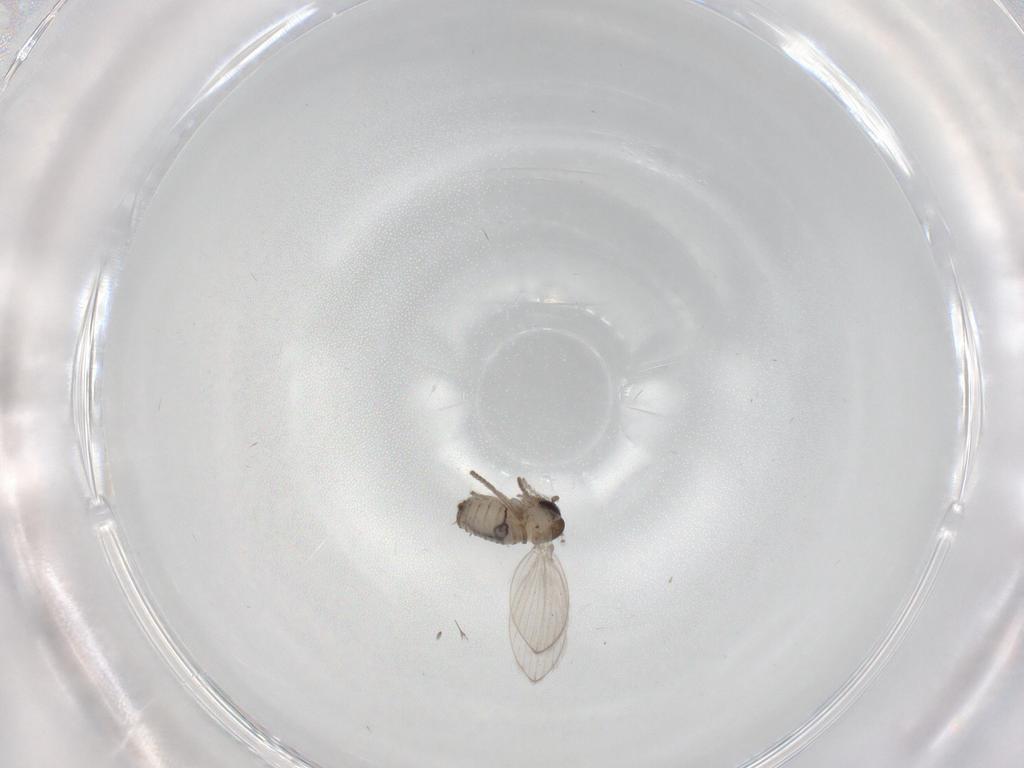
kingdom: Animalia
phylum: Arthropoda
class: Insecta
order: Diptera
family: Psychodidae
